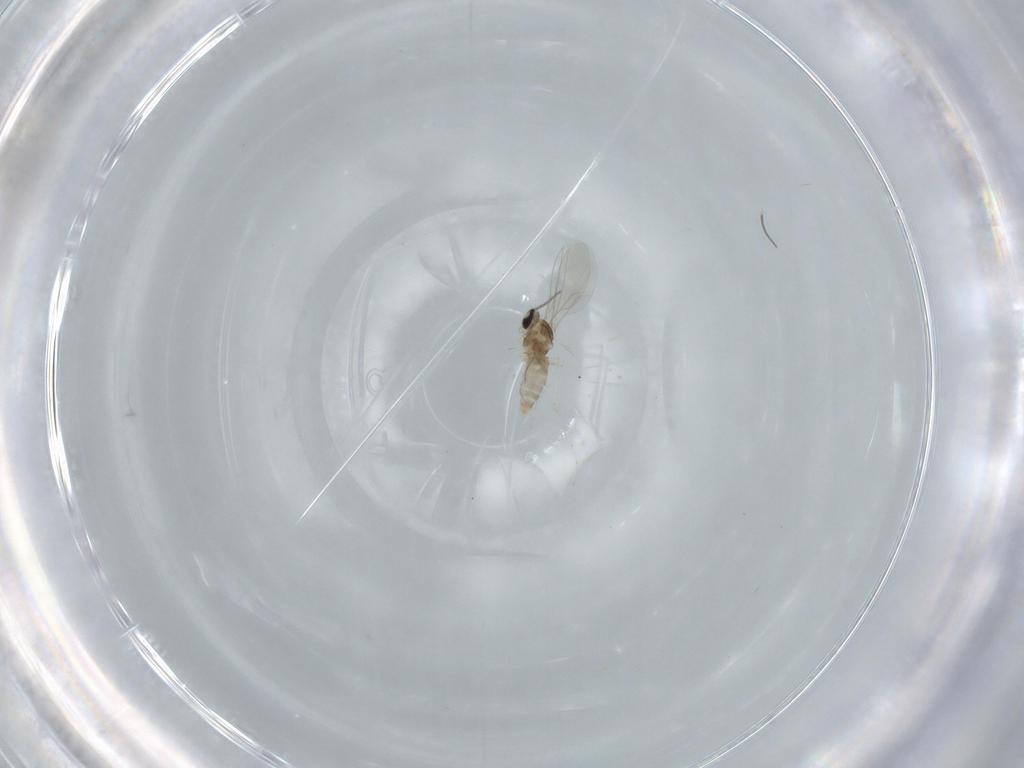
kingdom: Animalia
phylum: Arthropoda
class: Insecta
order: Diptera
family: Cecidomyiidae
